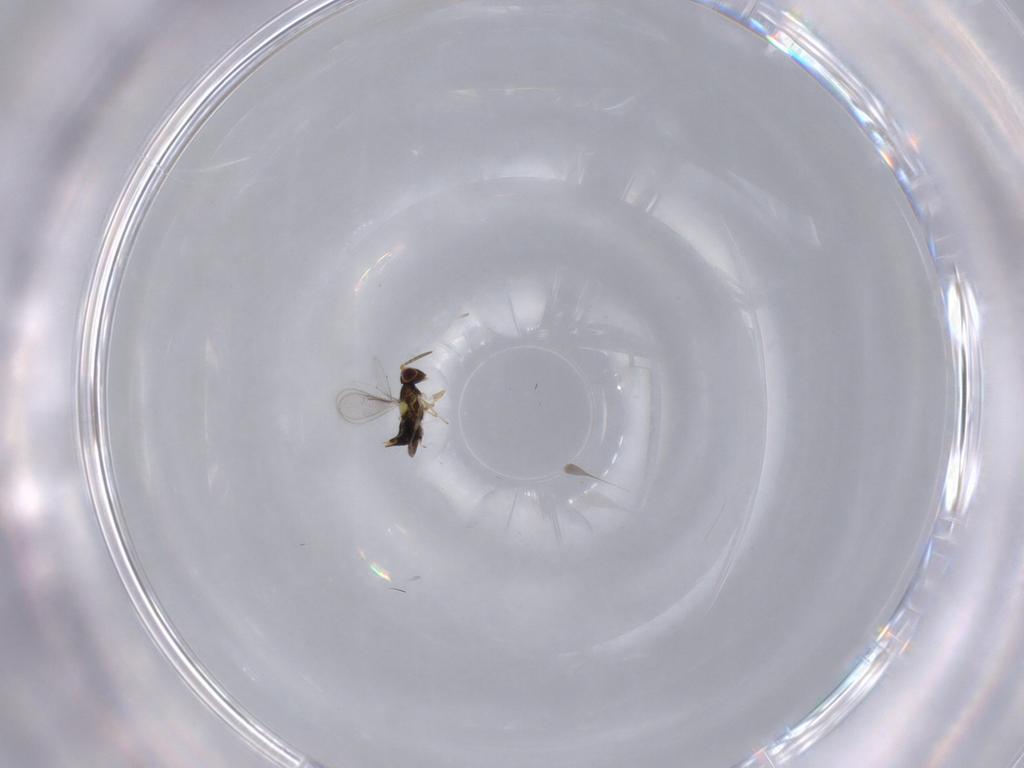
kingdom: Animalia
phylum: Arthropoda
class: Insecta
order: Hymenoptera
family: Aphelinidae
